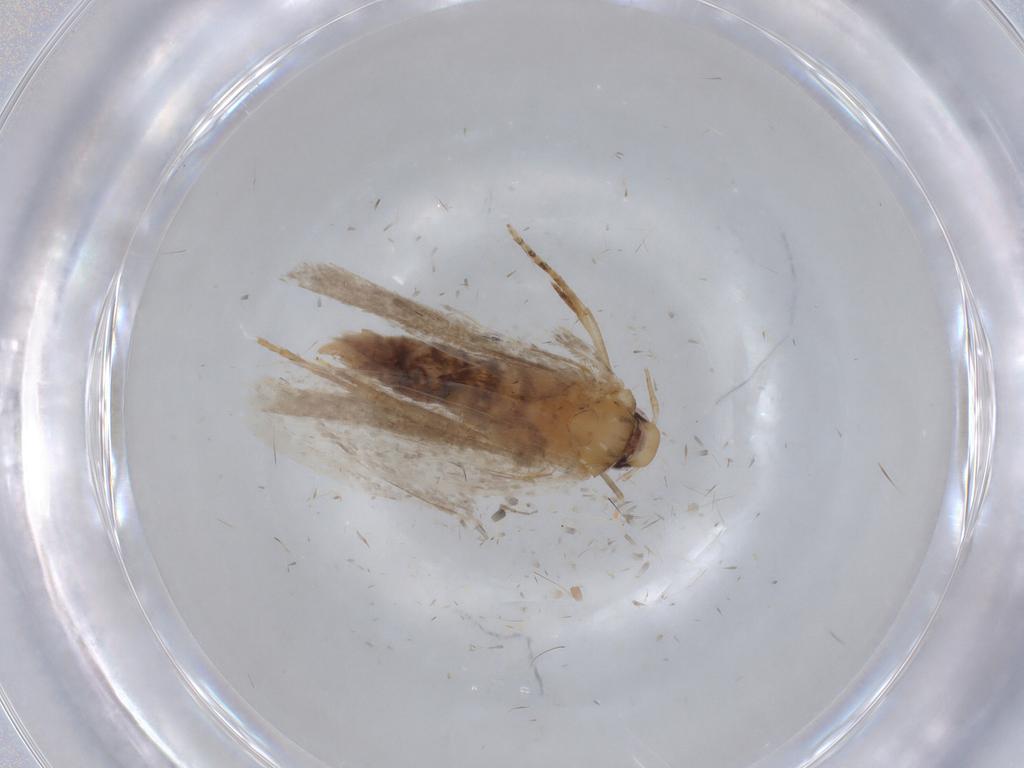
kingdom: Animalia
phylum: Arthropoda
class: Insecta
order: Lepidoptera
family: Gelechiidae
